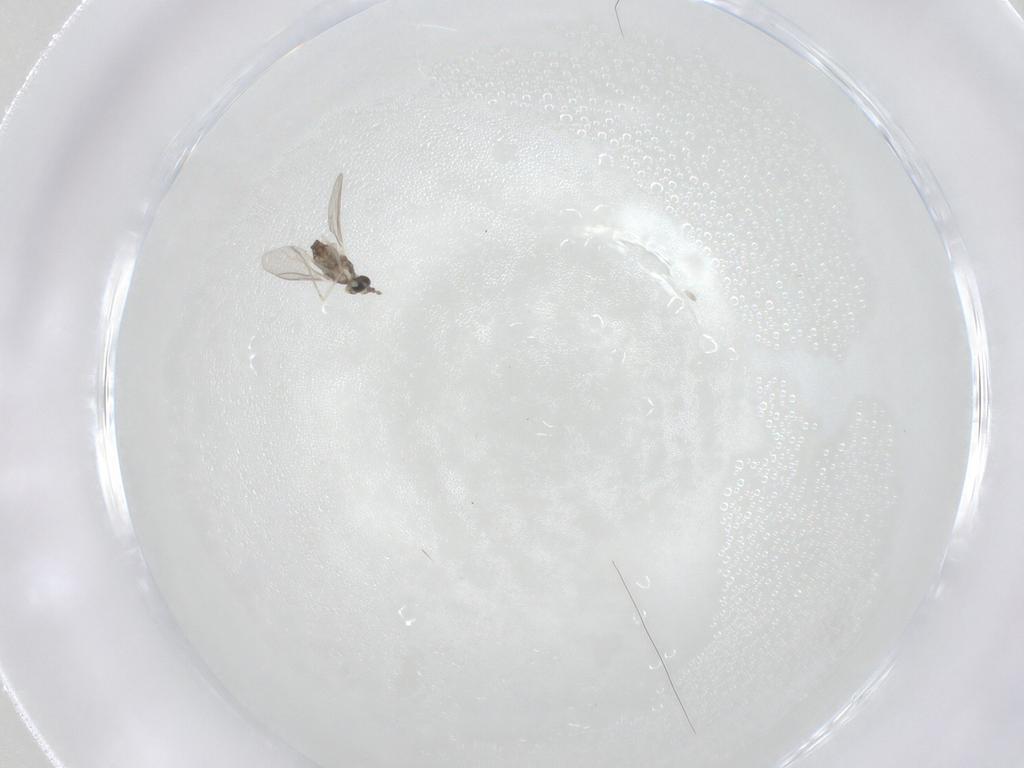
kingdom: Animalia
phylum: Arthropoda
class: Insecta
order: Diptera
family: Cecidomyiidae
